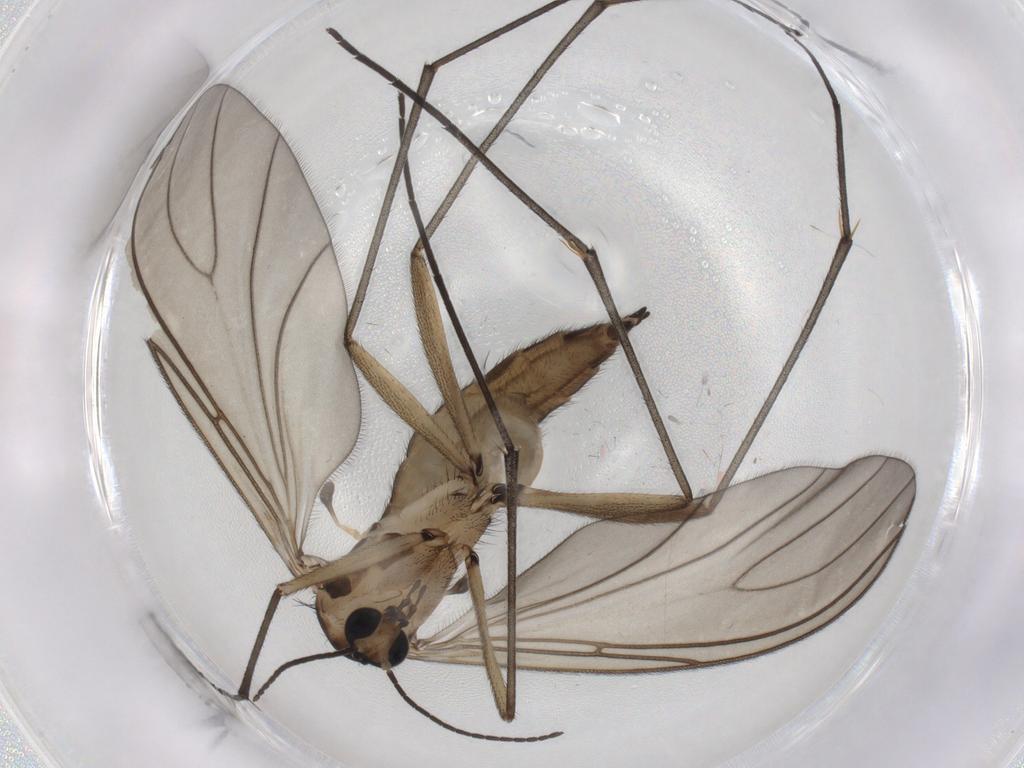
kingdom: Animalia
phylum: Arthropoda
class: Insecta
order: Diptera
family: Sciaridae
